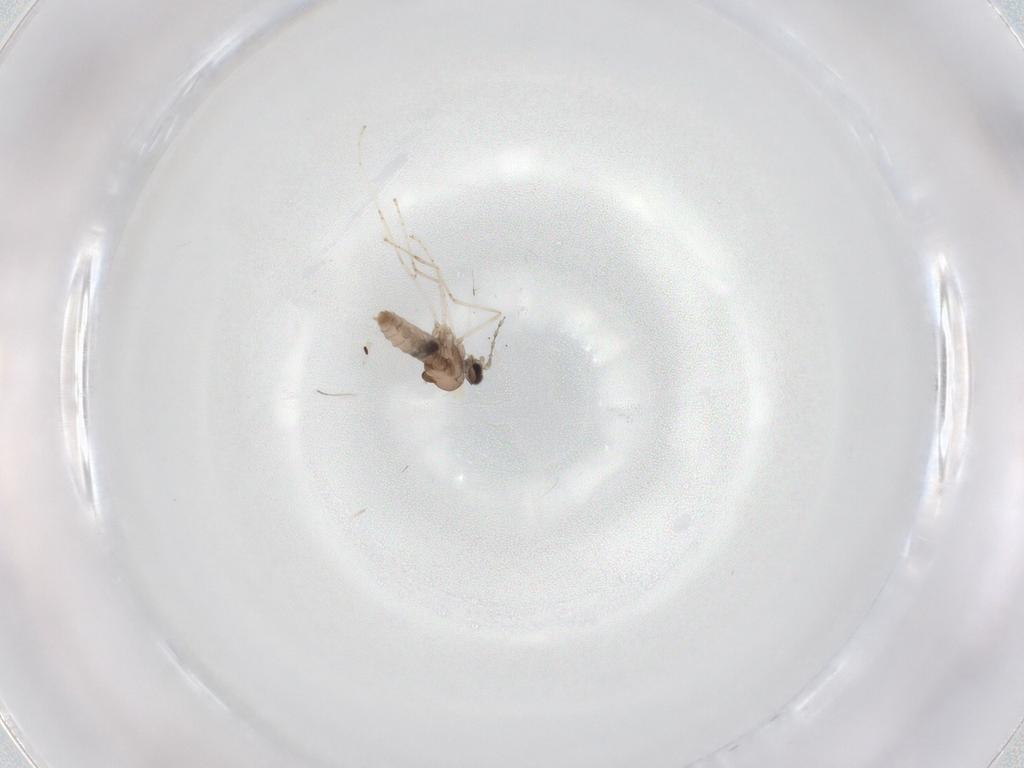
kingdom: Animalia
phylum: Arthropoda
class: Insecta
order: Diptera
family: Phoridae
